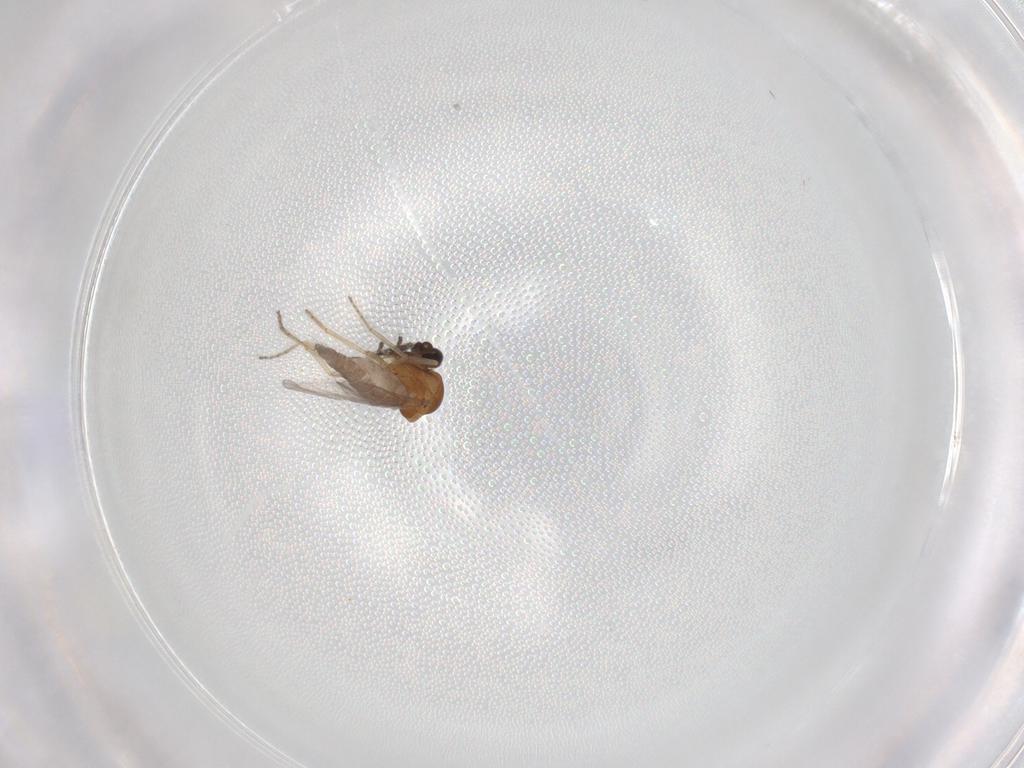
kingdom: Animalia
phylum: Arthropoda
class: Insecta
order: Diptera
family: Ceratopogonidae
